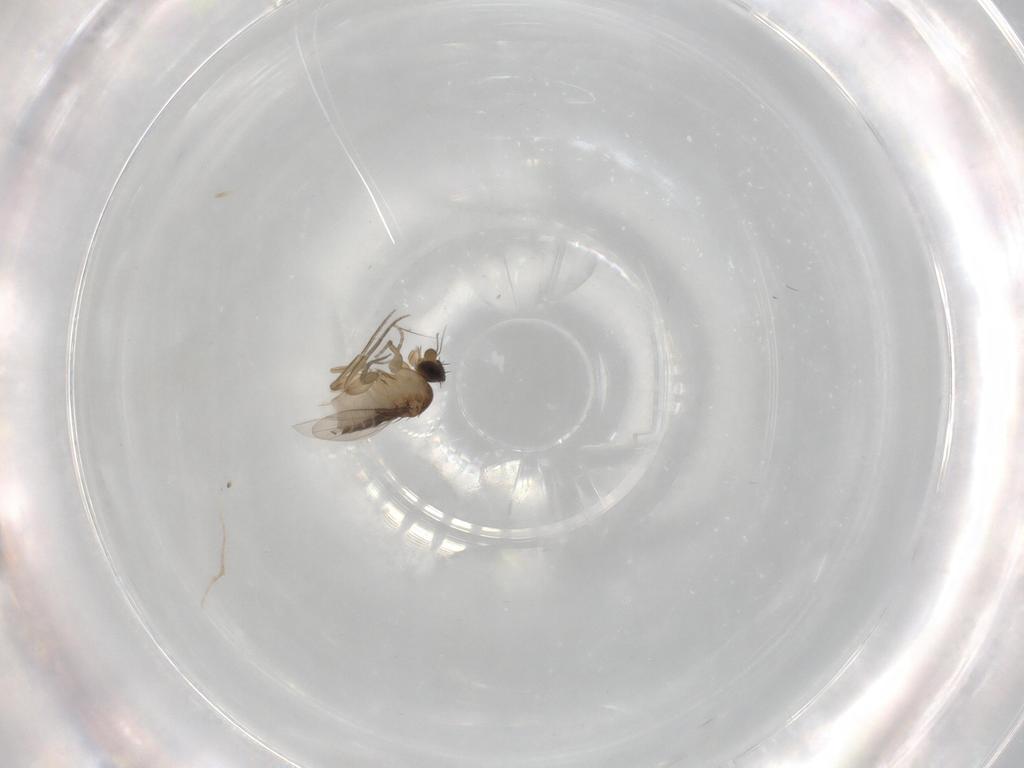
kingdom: Animalia
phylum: Arthropoda
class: Insecta
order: Diptera
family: Phoridae
